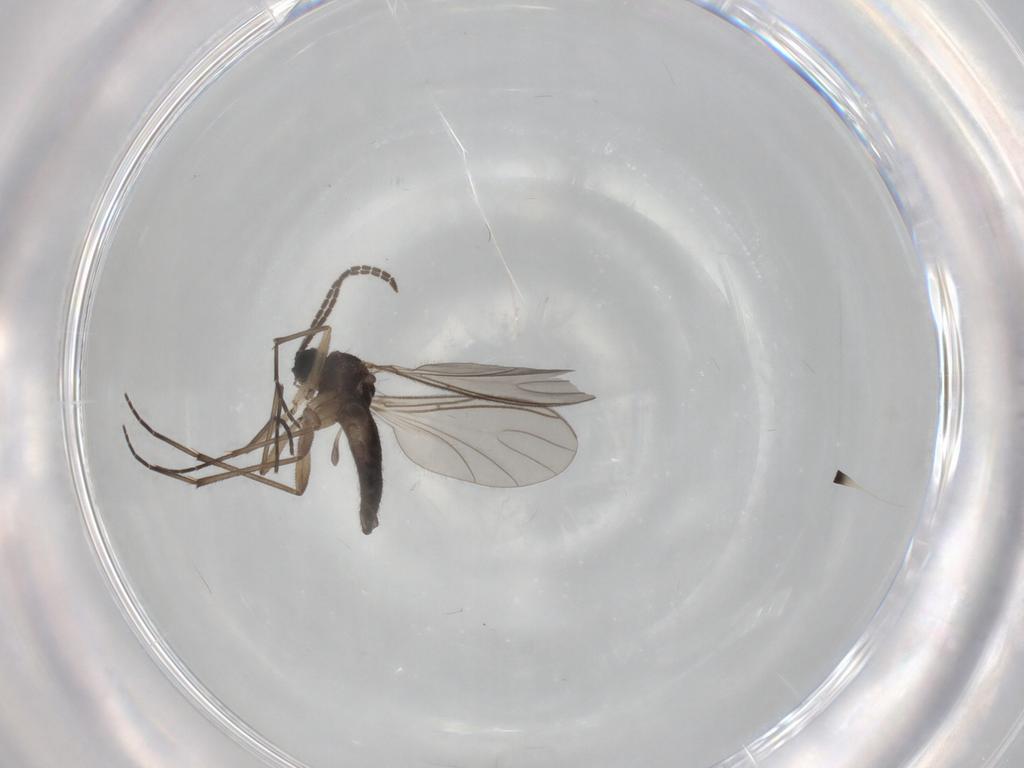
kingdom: Animalia
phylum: Arthropoda
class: Insecta
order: Diptera
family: Sciaridae
